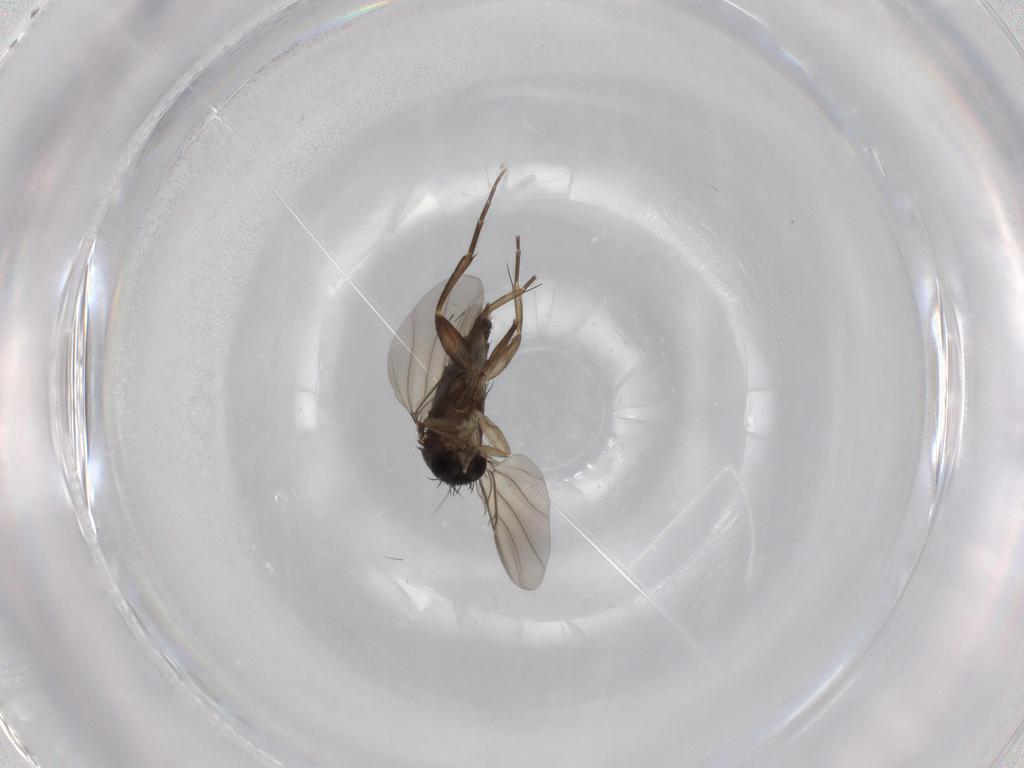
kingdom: Animalia
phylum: Arthropoda
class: Insecta
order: Diptera
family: Phoridae
